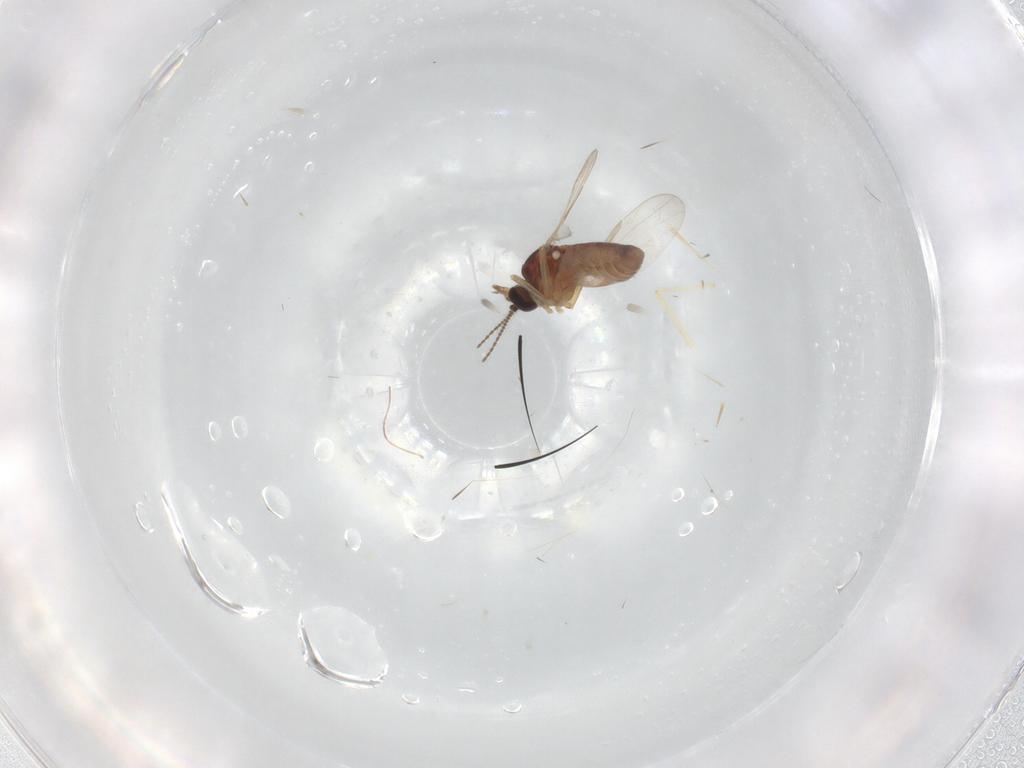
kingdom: Animalia
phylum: Arthropoda
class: Insecta
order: Diptera
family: Ceratopogonidae
